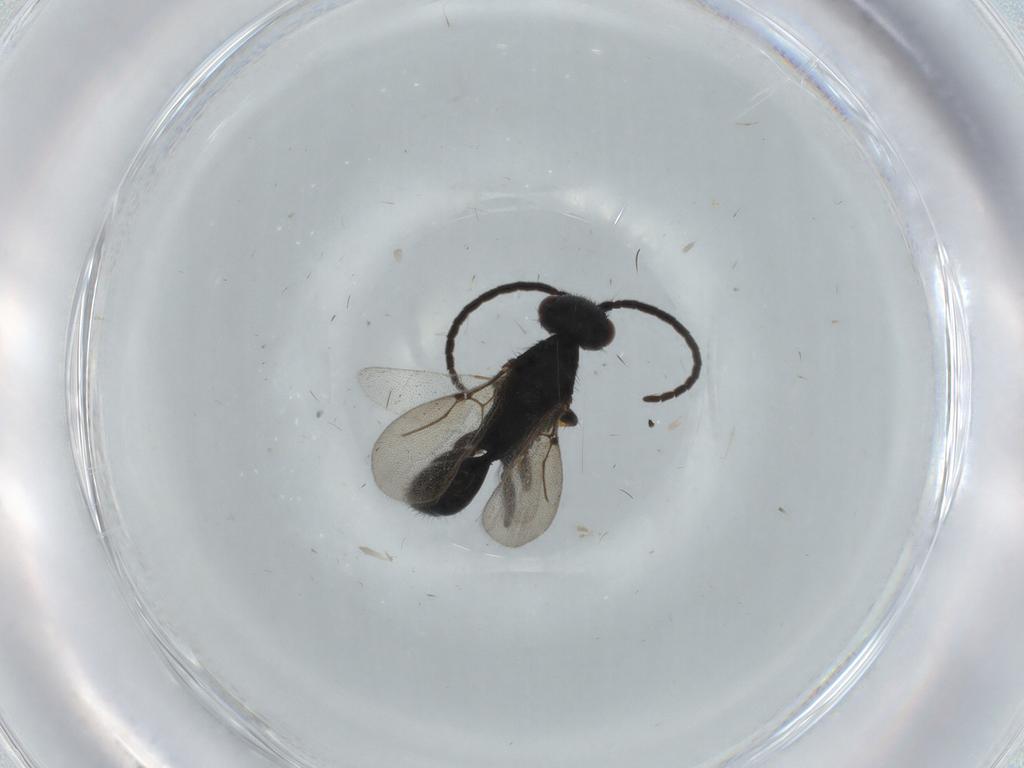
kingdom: Animalia
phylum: Arthropoda
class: Insecta
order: Hymenoptera
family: Bethylidae
